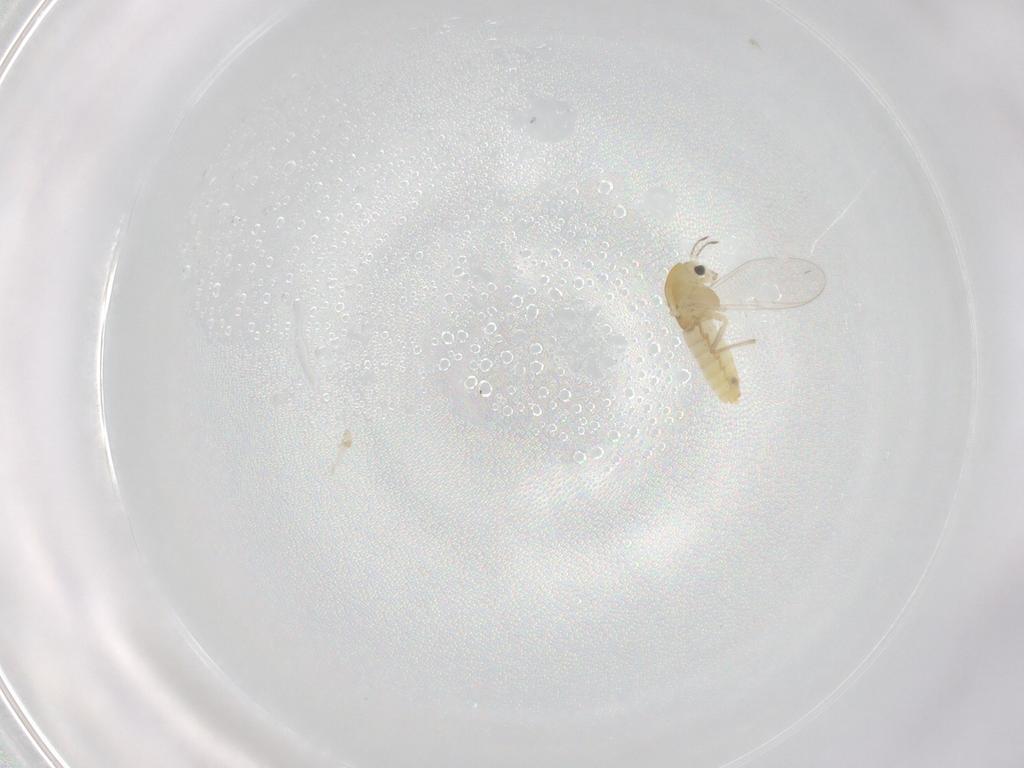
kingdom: Animalia
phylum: Arthropoda
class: Insecta
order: Diptera
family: Chironomidae
